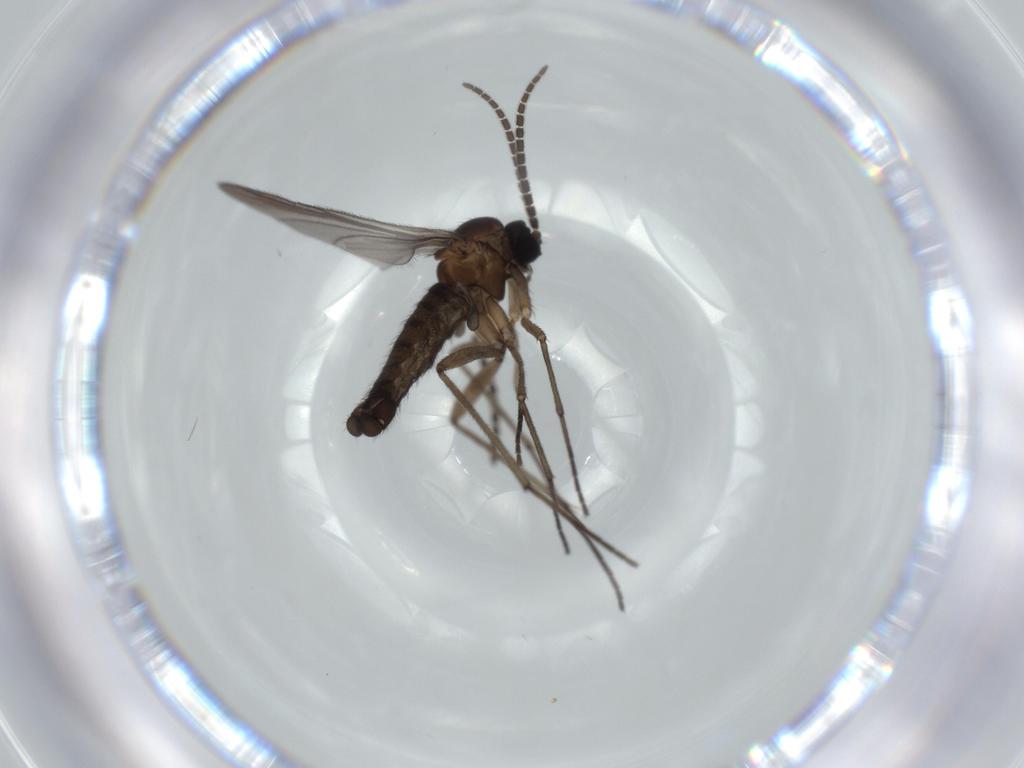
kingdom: Animalia
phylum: Arthropoda
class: Insecta
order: Diptera
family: Sciaridae
